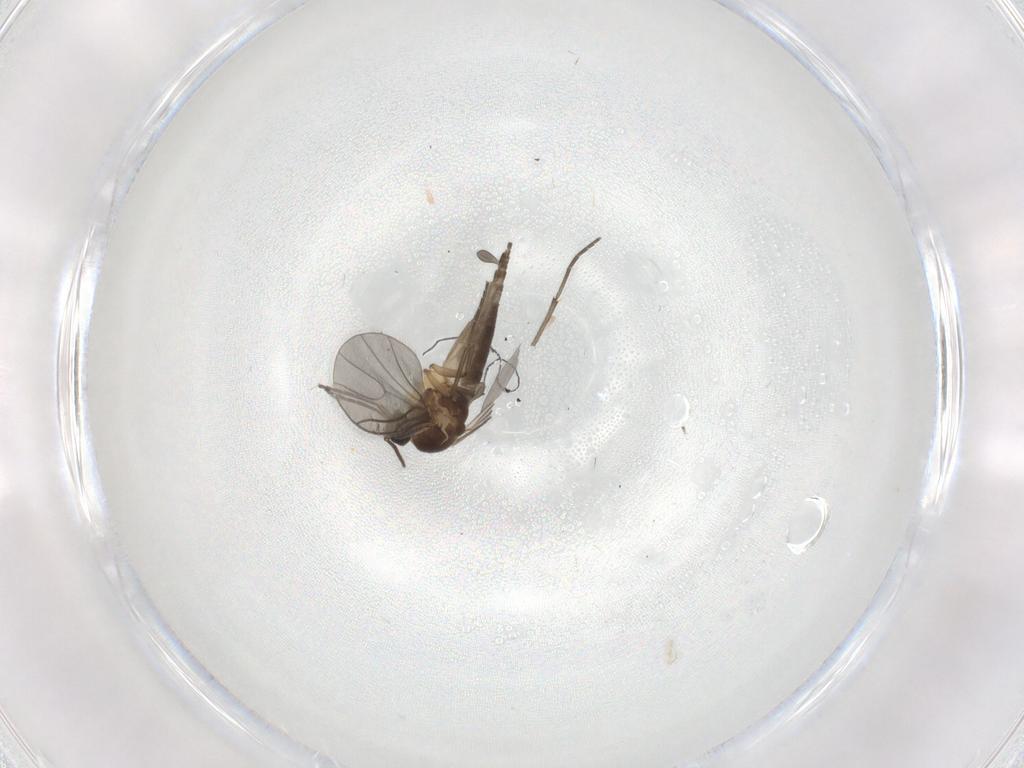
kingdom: Animalia
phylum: Arthropoda
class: Insecta
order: Diptera
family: Sciaridae
